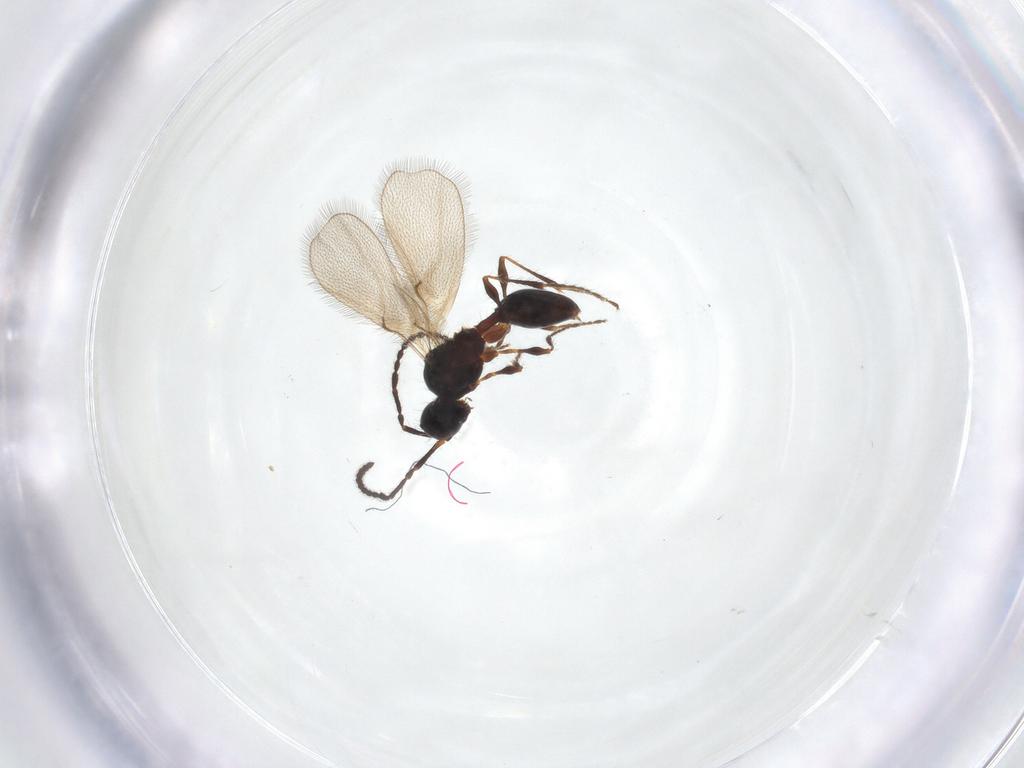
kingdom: Animalia
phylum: Arthropoda
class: Insecta
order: Hymenoptera
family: Diapriidae
